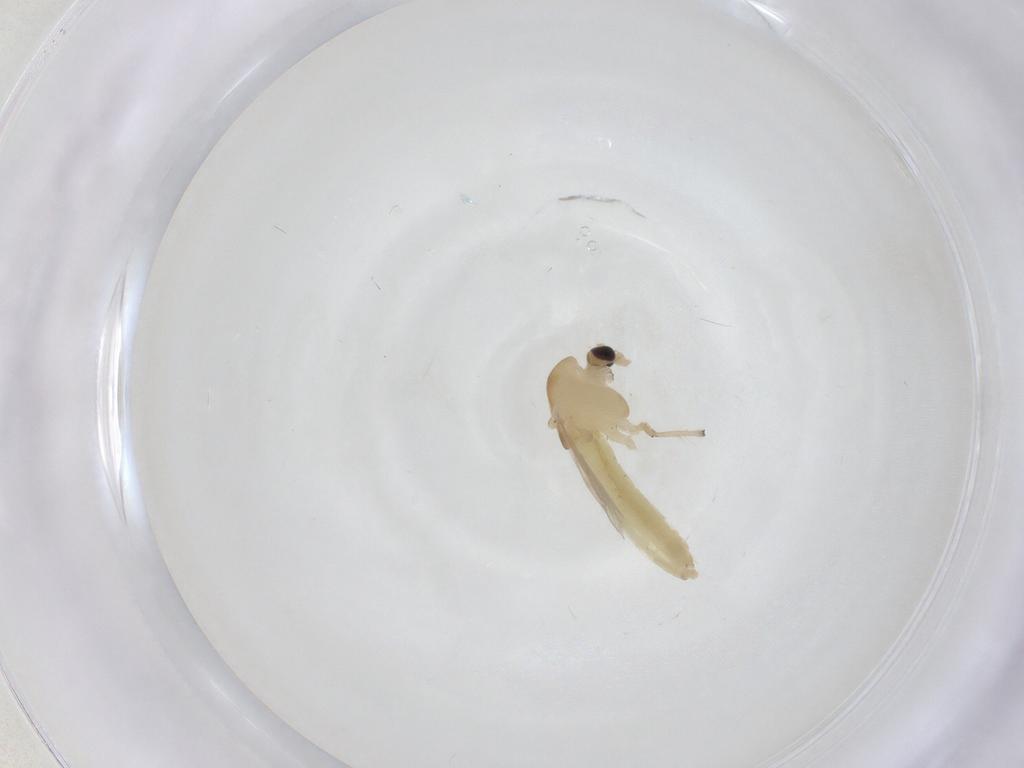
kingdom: Animalia
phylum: Arthropoda
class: Insecta
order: Diptera
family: Chironomidae
